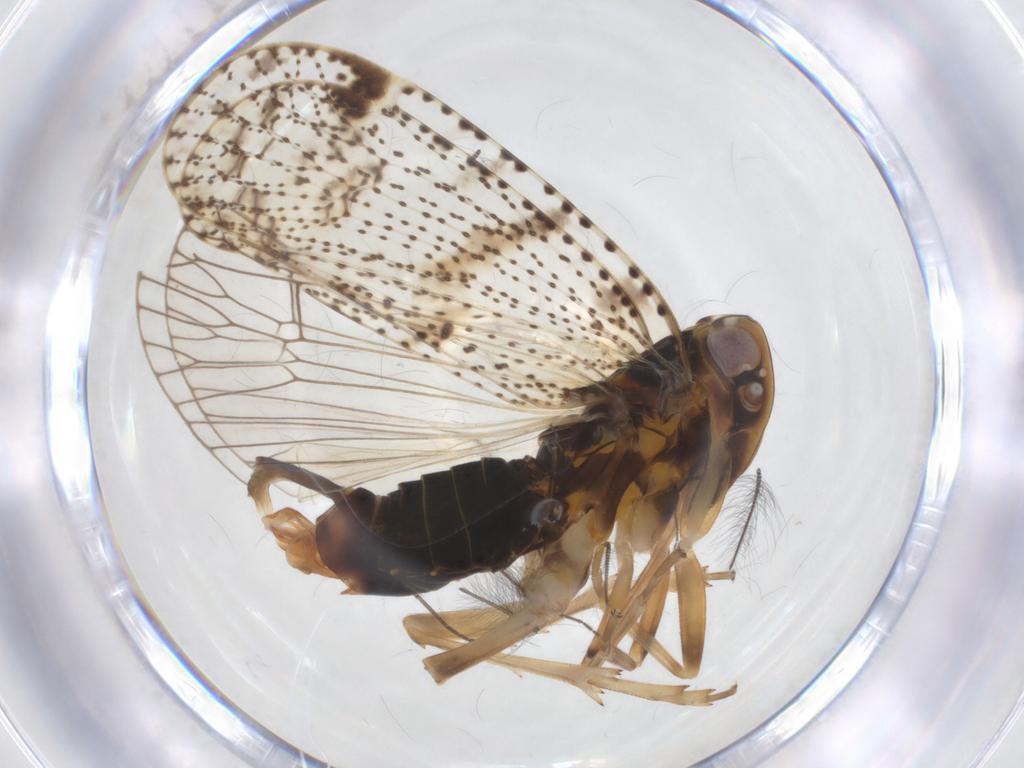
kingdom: Animalia
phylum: Arthropoda
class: Insecta
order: Hemiptera
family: Cixiidae
